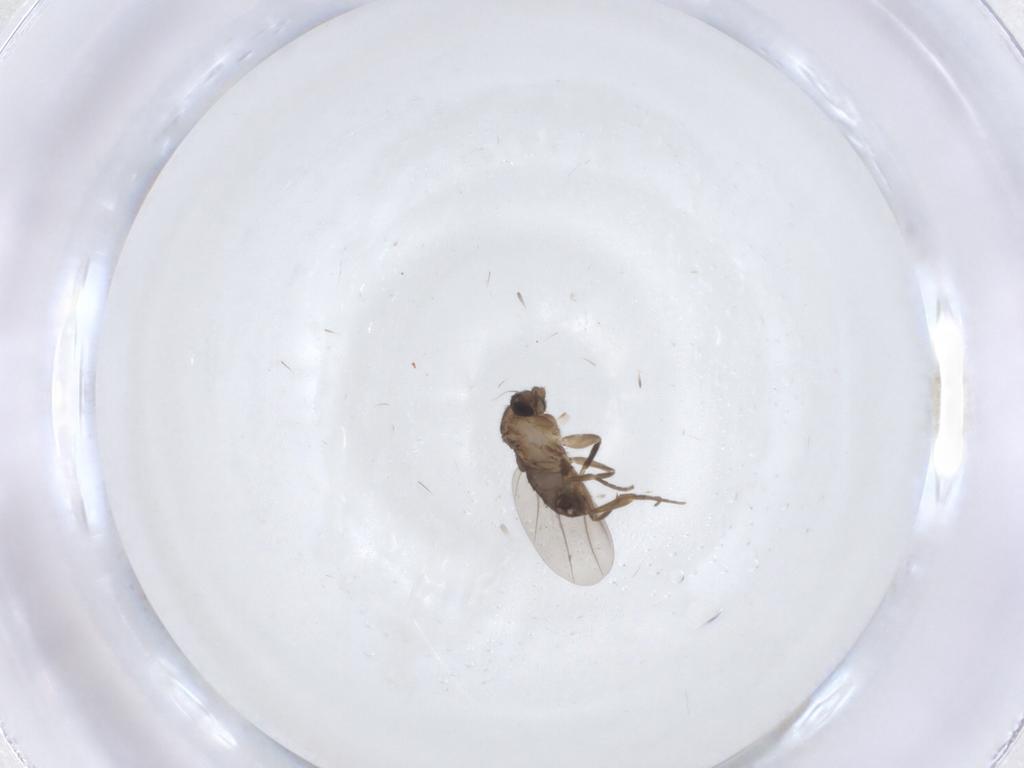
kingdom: Animalia
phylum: Arthropoda
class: Insecta
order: Diptera
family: Phoridae
